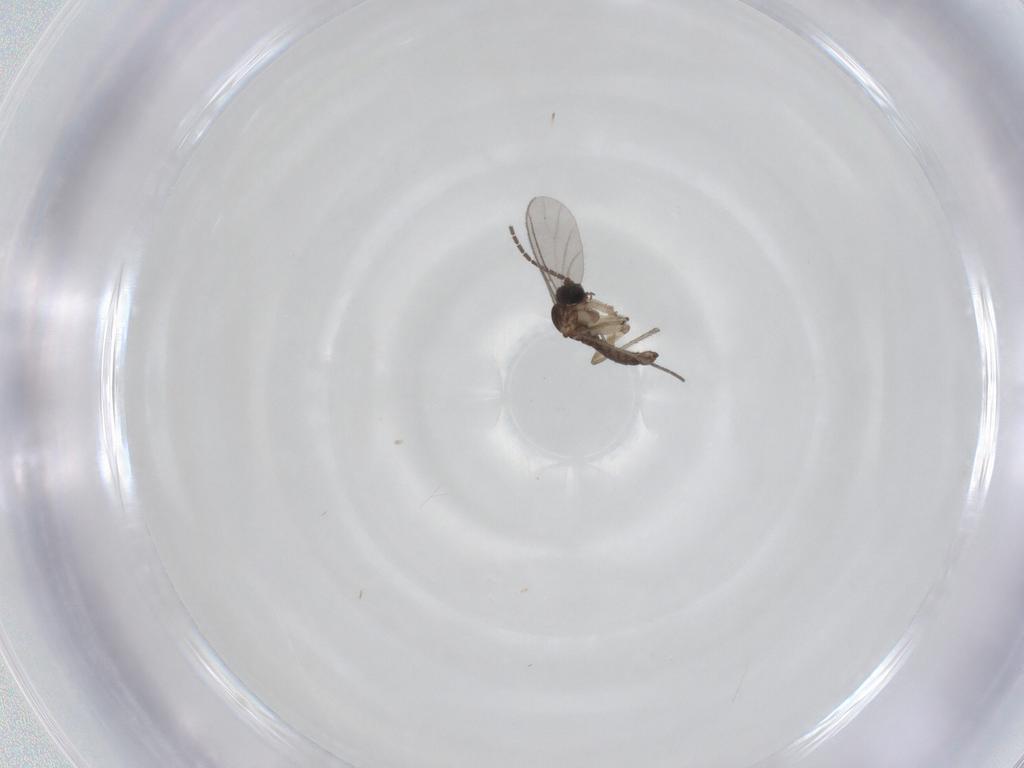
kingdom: Animalia
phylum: Arthropoda
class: Insecta
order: Diptera
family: Sciaridae
